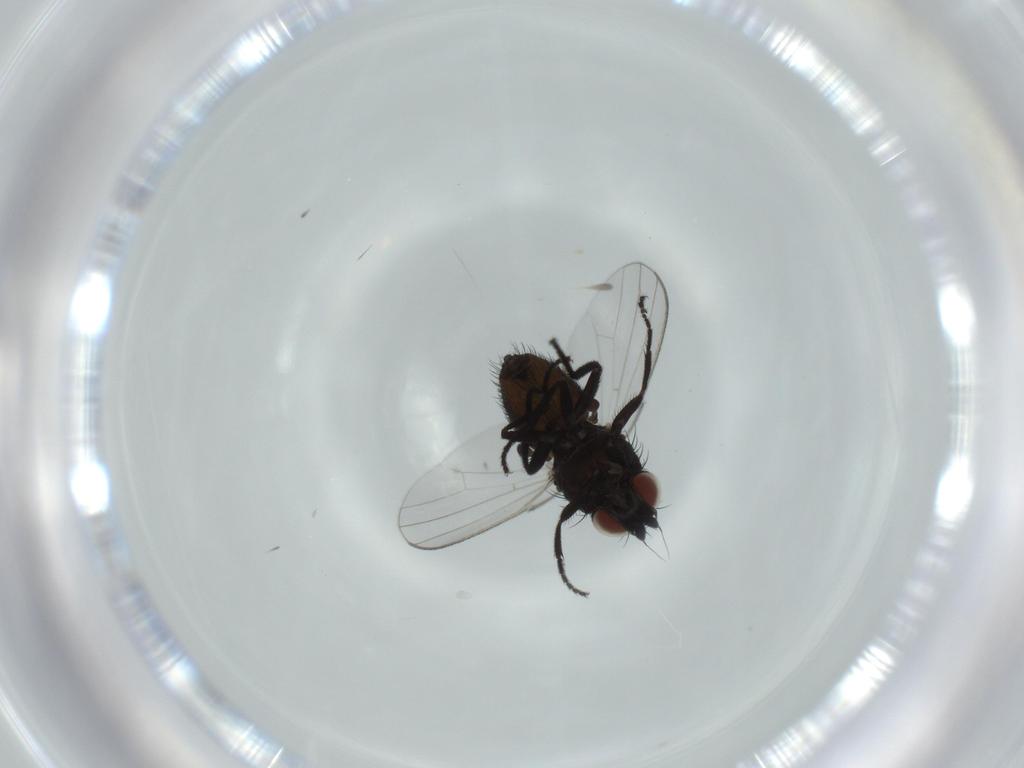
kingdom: Animalia
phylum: Arthropoda
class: Insecta
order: Diptera
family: Milichiidae
